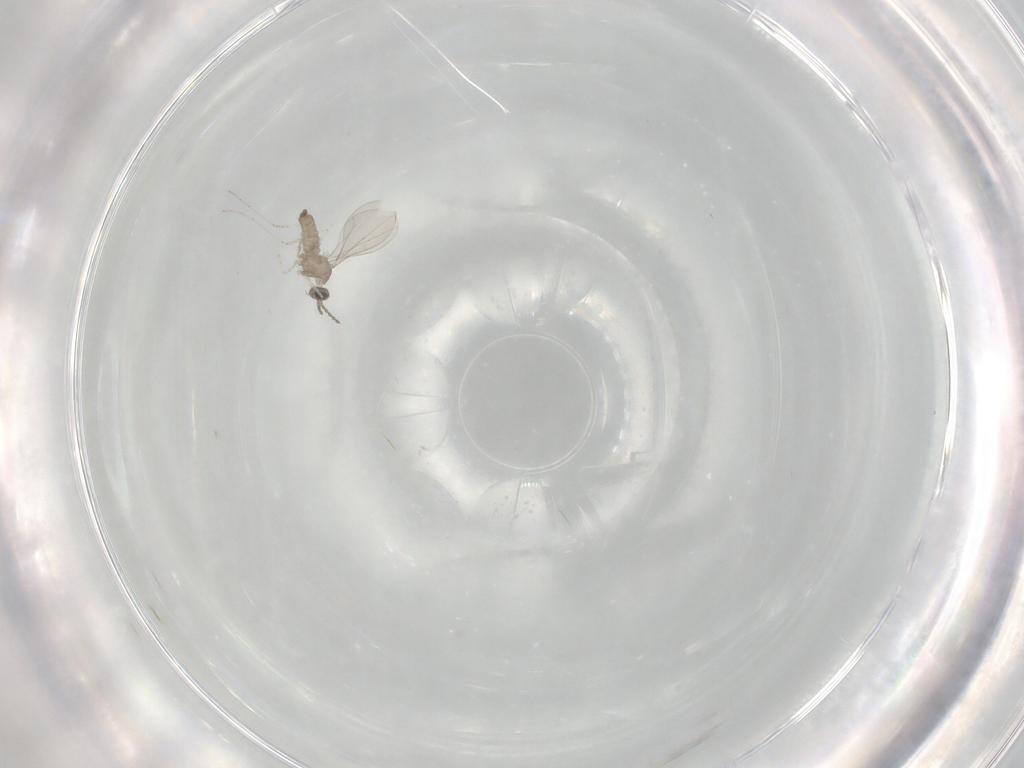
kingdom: Animalia
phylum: Arthropoda
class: Insecta
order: Diptera
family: Cecidomyiidae
